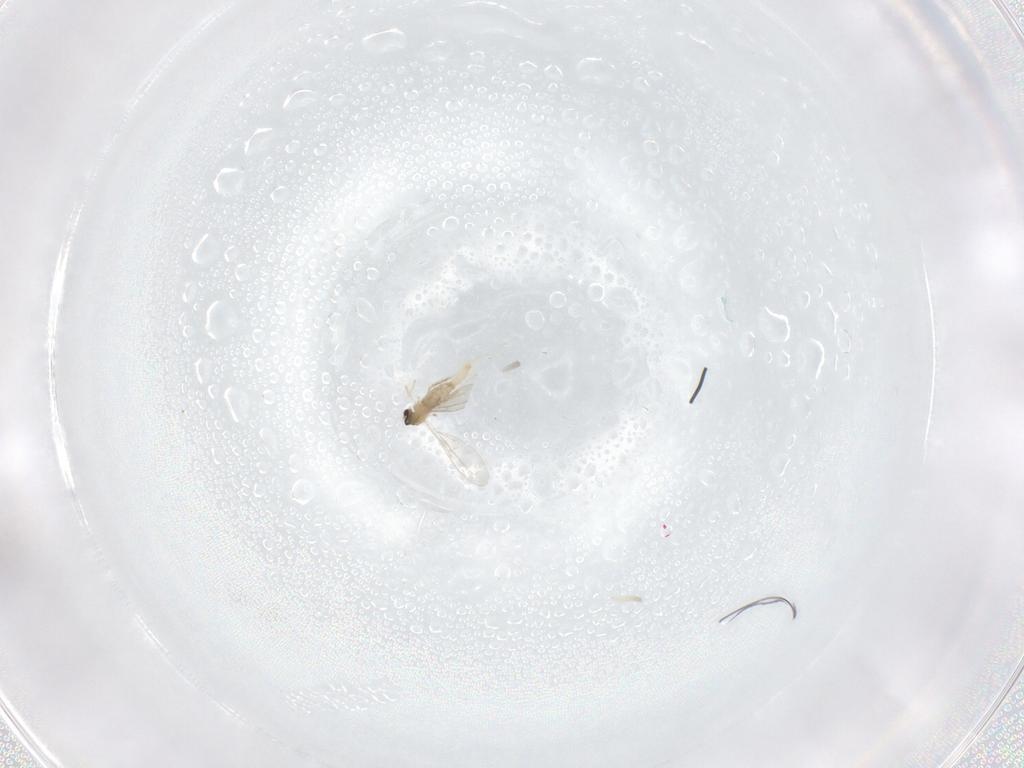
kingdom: Animalia
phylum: Arthropoda
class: Insecta
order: Diptera
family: Cecidomyiidae
